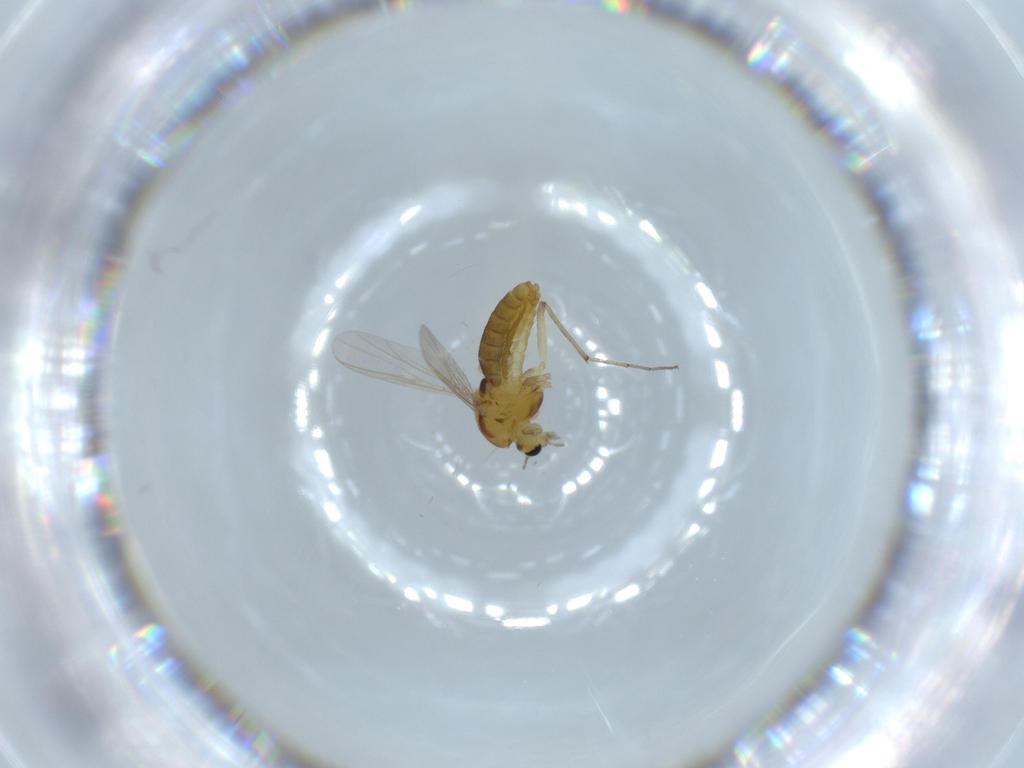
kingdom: Animalia
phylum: Arthropoda
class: Insecta
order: Diptera
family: Chironomidae
